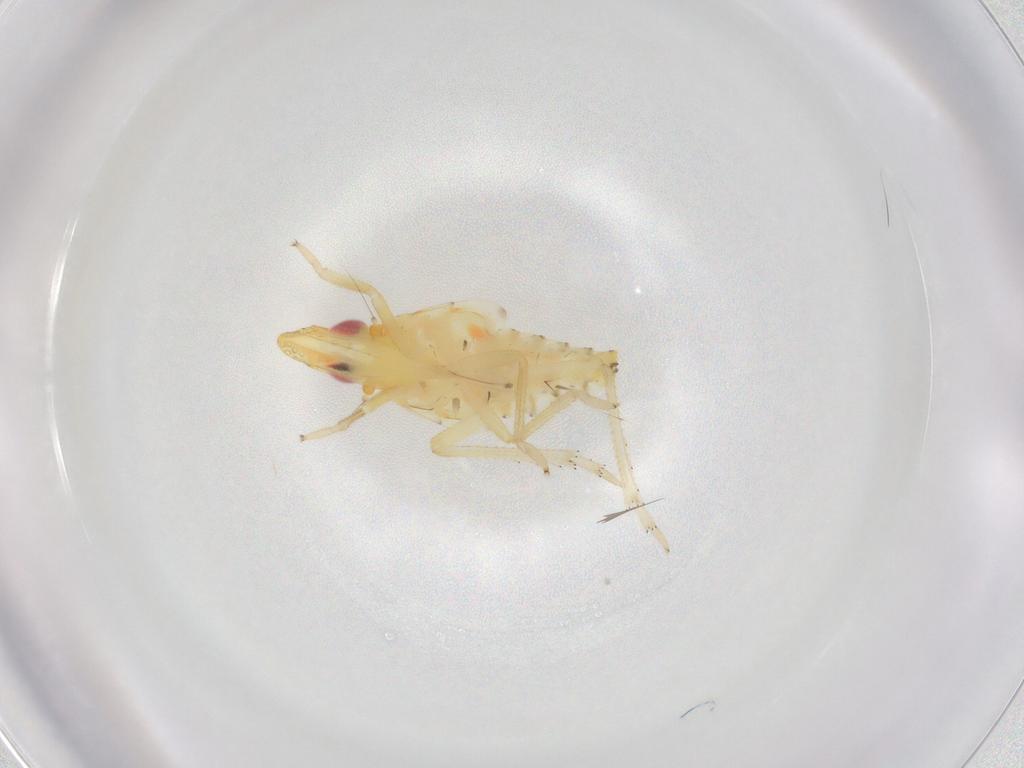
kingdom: Animalia
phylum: Arthropoda
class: Insecta
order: Hemiptera
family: Tropiduchidae
